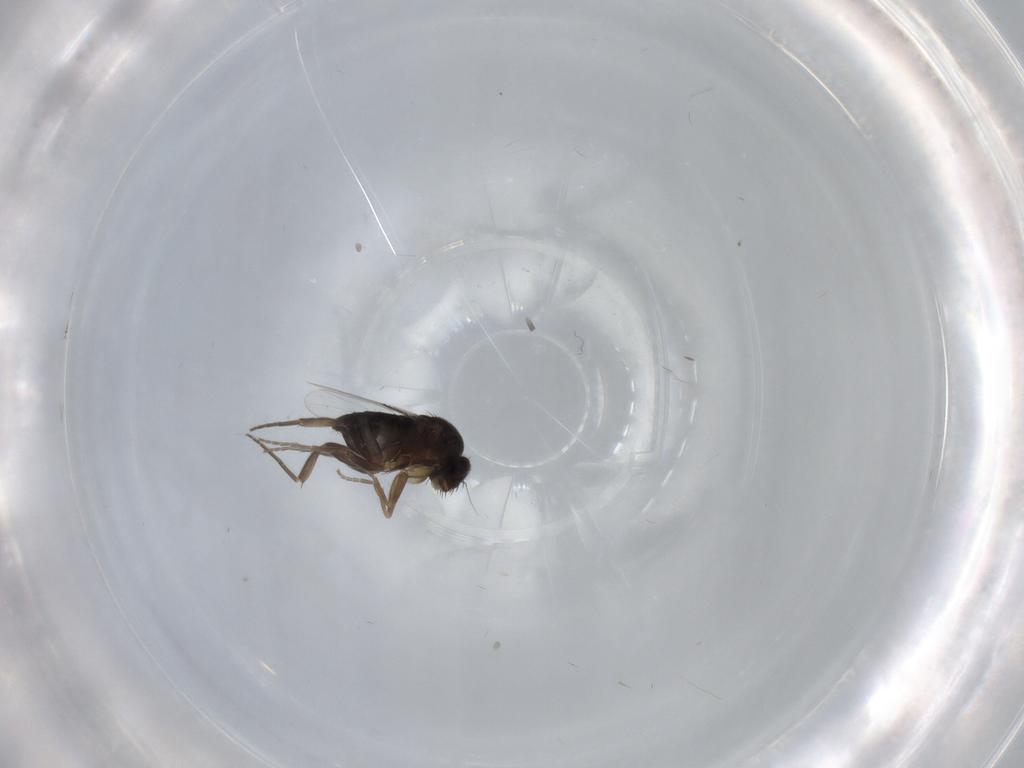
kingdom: Animalia
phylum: Arthropoda
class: Insecta
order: Diptera
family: Phoridae
